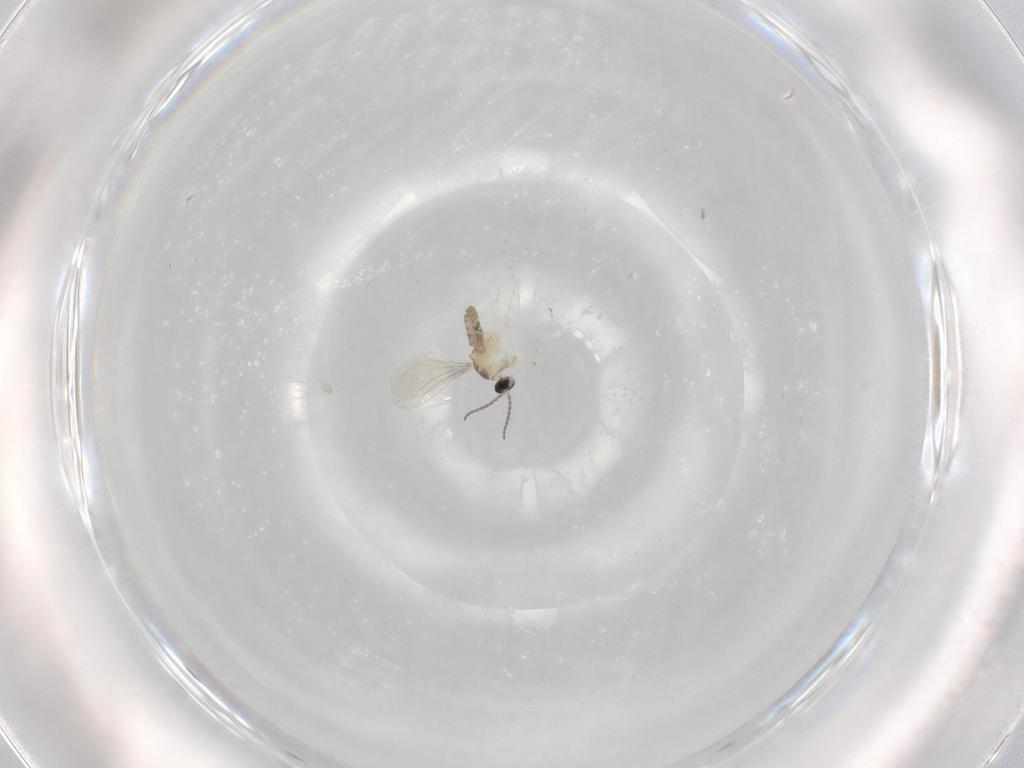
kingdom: Animalia
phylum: Arthropoda
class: Insecta
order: Diptera
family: Cecidomyiidae
